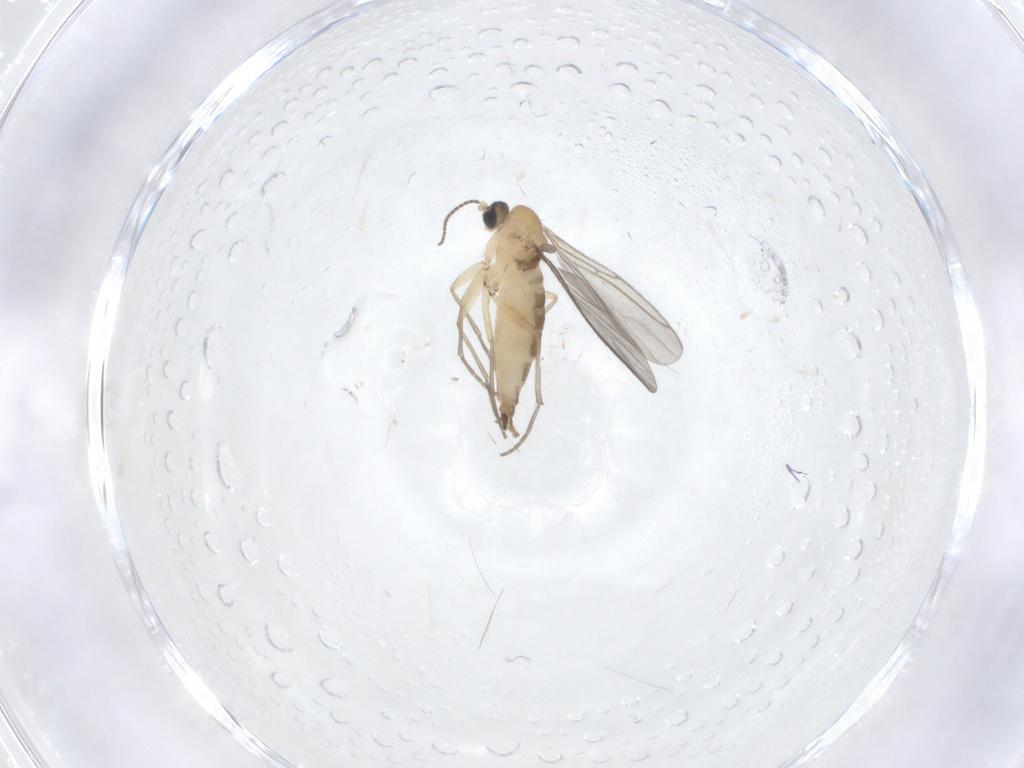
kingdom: Animalia
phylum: Arthropoda
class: Insecta
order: Diptera
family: Sciaridae
